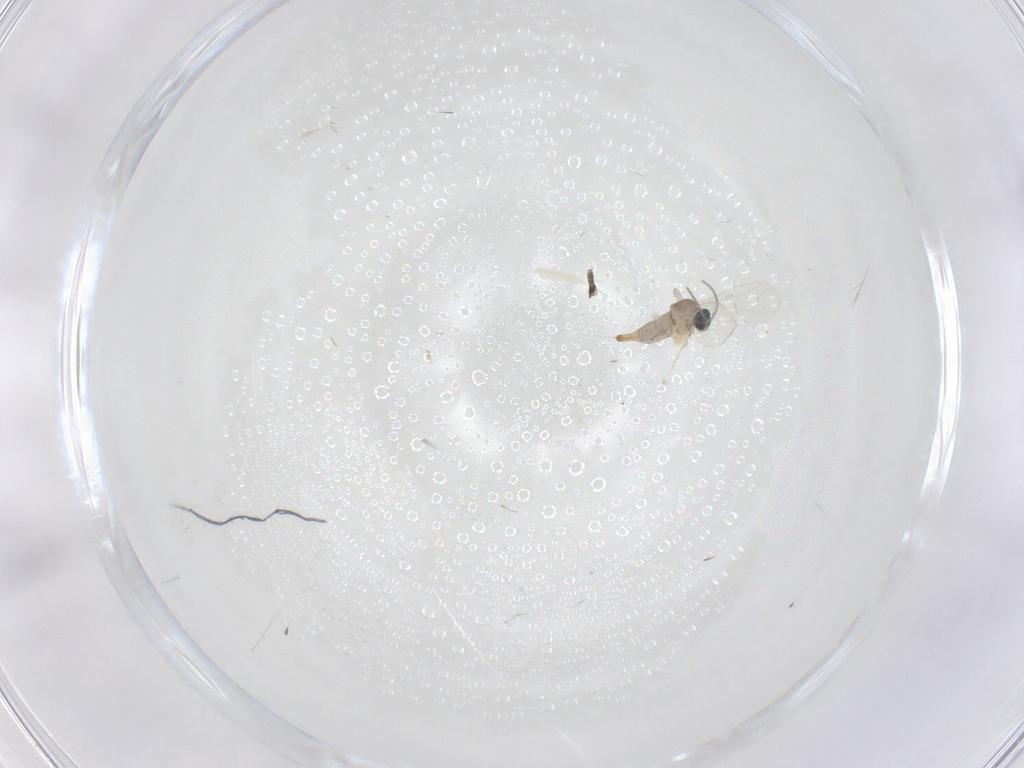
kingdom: Animalia
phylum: Arthropoda
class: Insecta
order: Diptera
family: Cecidomyiidae
